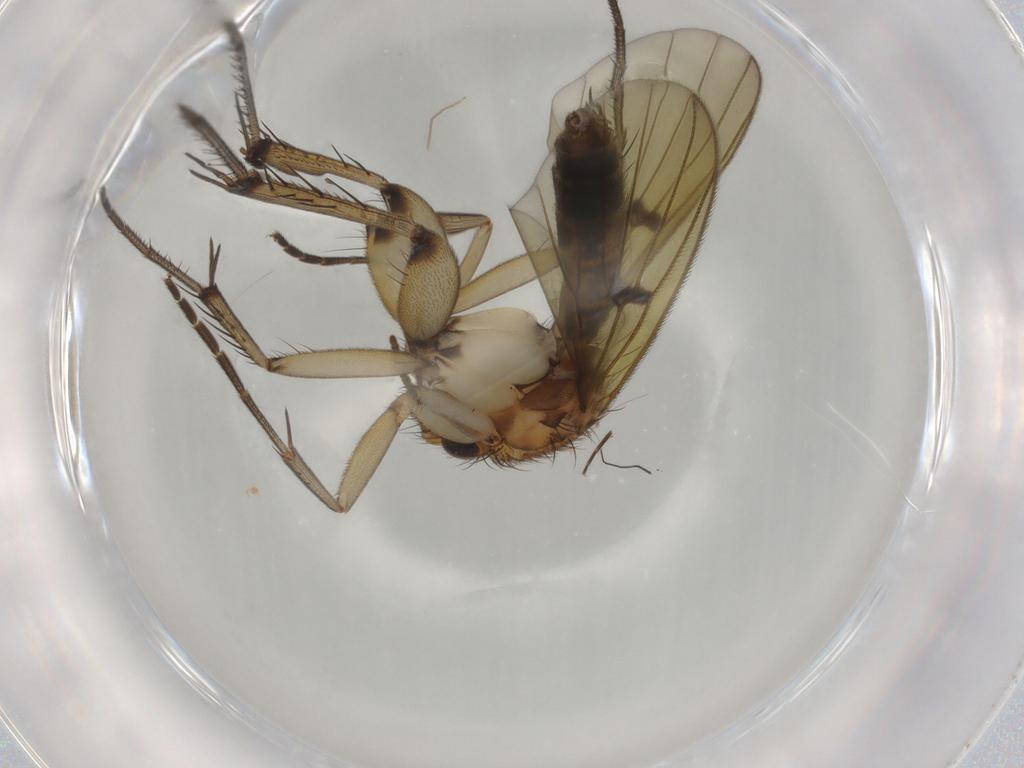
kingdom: Animalia
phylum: Arthropoda
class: Insecta
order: Diptera
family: Mycetophilidae
